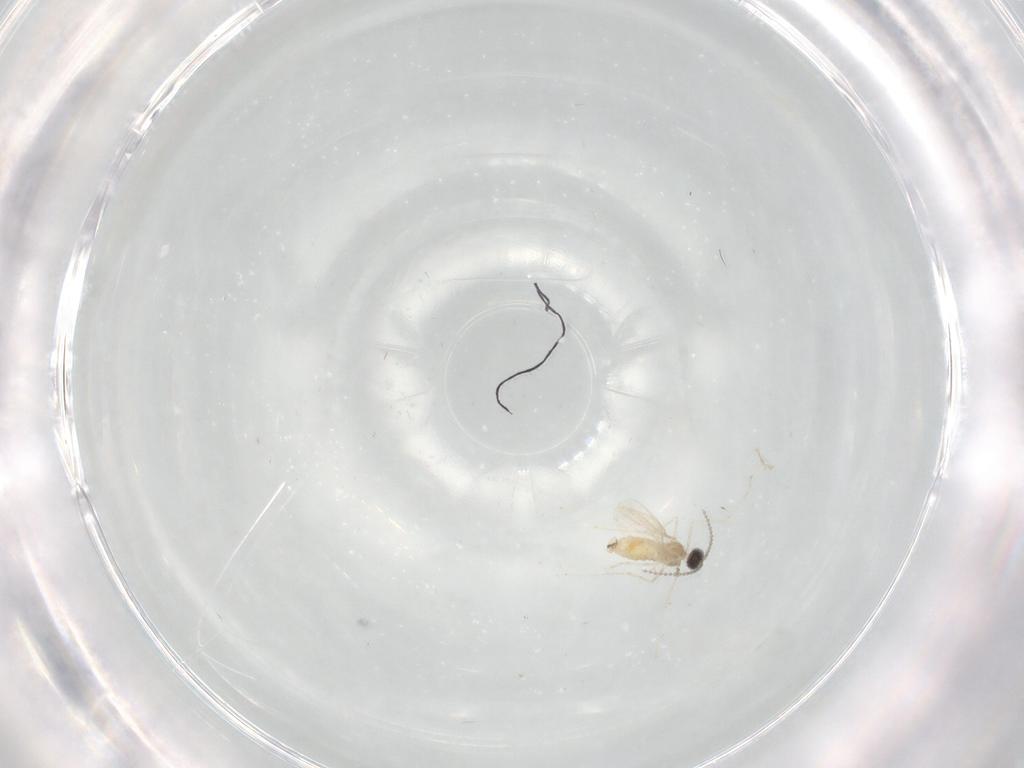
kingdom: Animalia
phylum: Arthropoda
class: Insecta
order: Diptera
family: Cecidomyiidae
